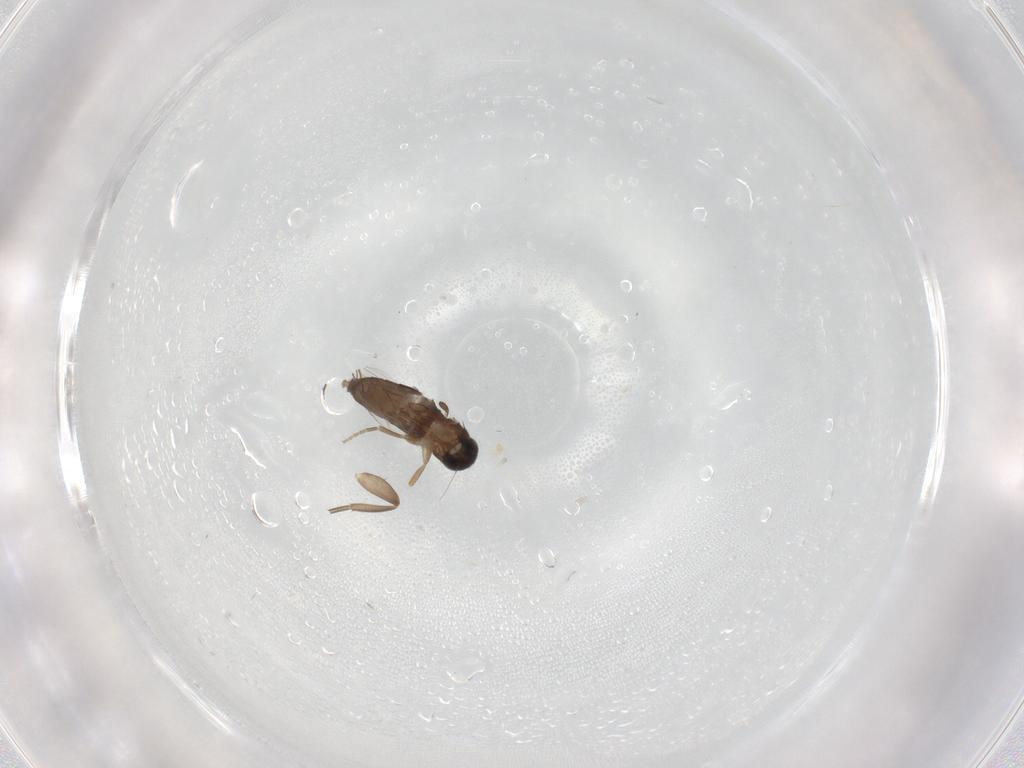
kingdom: Animalia
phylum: Arthropoda
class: Insecta
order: Diptera
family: Phoridae
